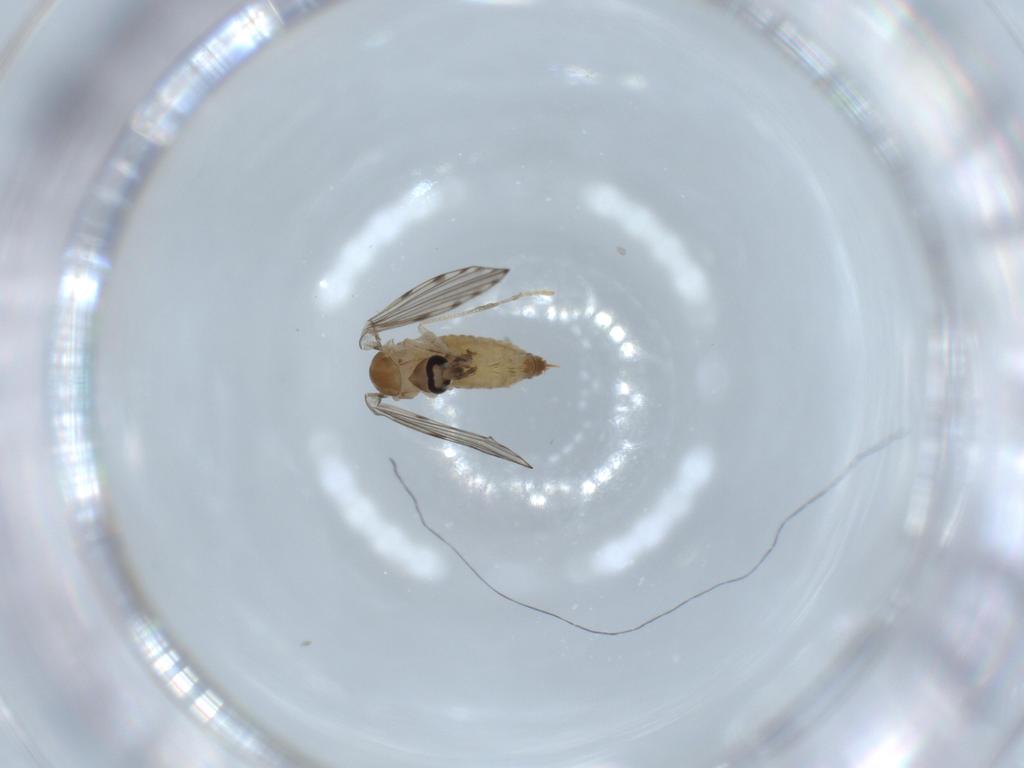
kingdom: Animalia
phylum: Arthropoda
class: Insecta
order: Diptera
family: Psychodidae
